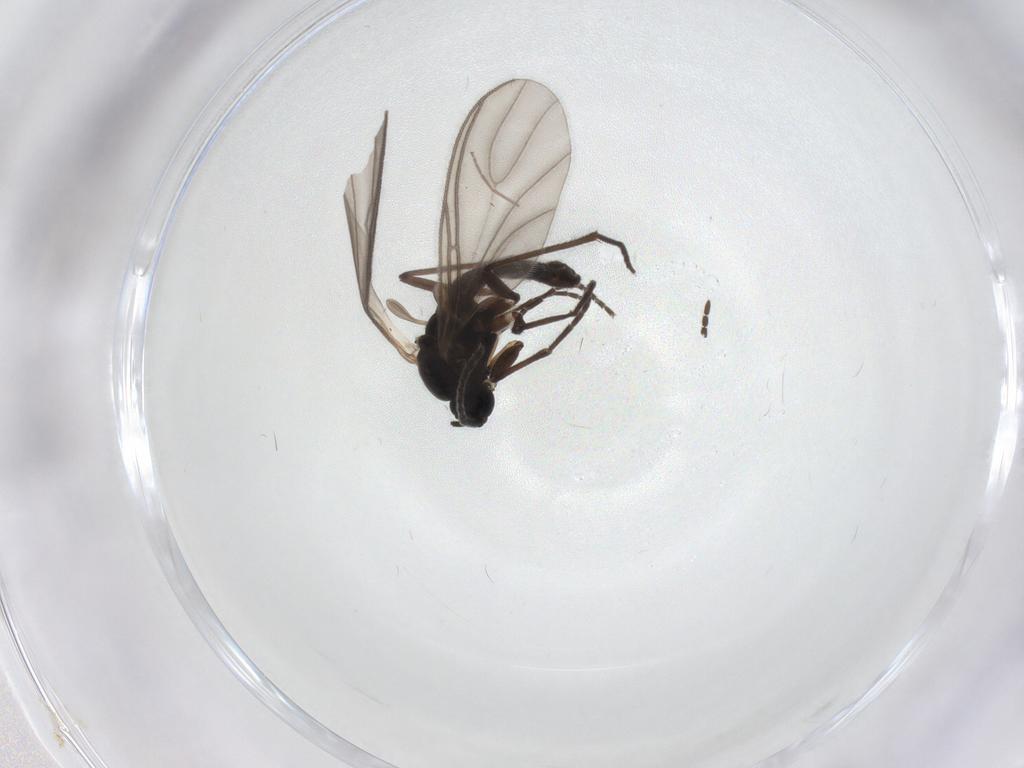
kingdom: Animalia
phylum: Arthropoda
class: Insecta
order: Diptera
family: Sciaridae
